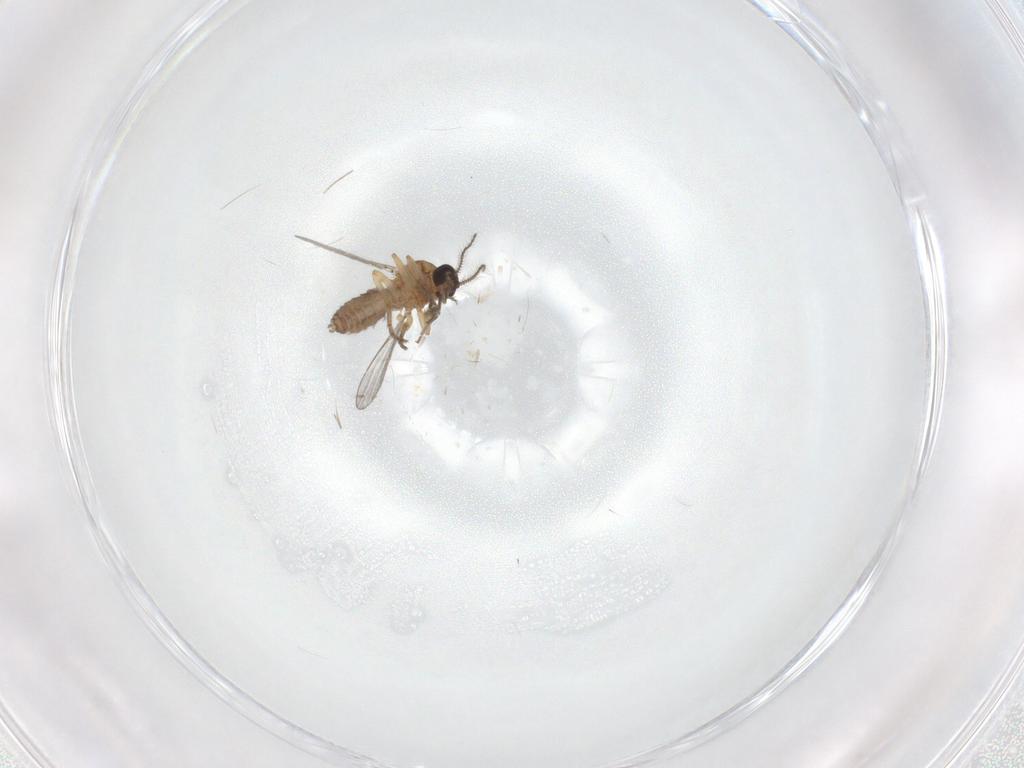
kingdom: Animalia
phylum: Arthropoda
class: Insecta
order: Diptera
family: Chironomidae
